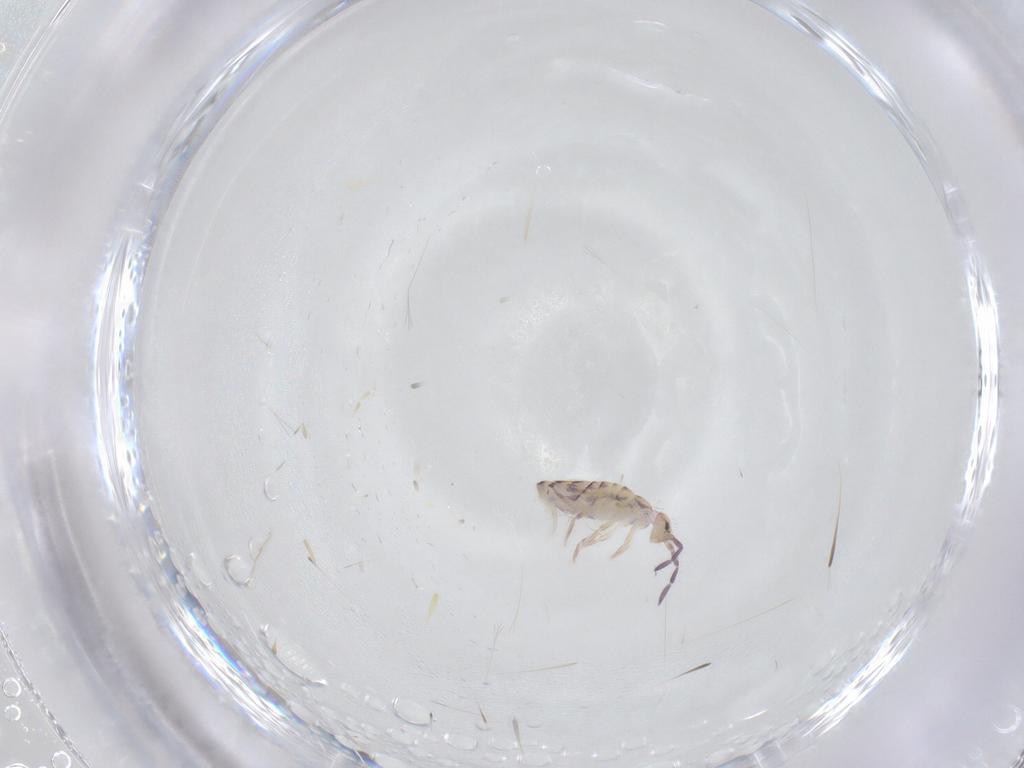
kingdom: Animalia
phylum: Arthropoda
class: Collembola
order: Entomobryomorpha
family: Entomobryidae
